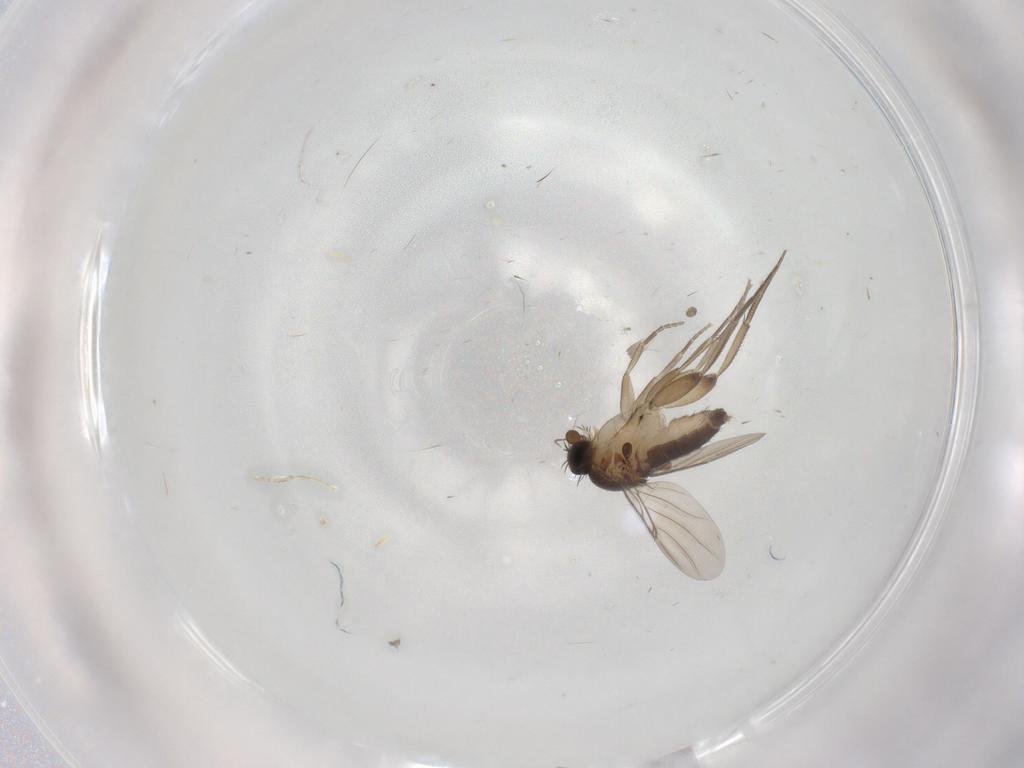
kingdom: Animalia
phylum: Arthropoda
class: Insecta
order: Diptera
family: Phoridae
